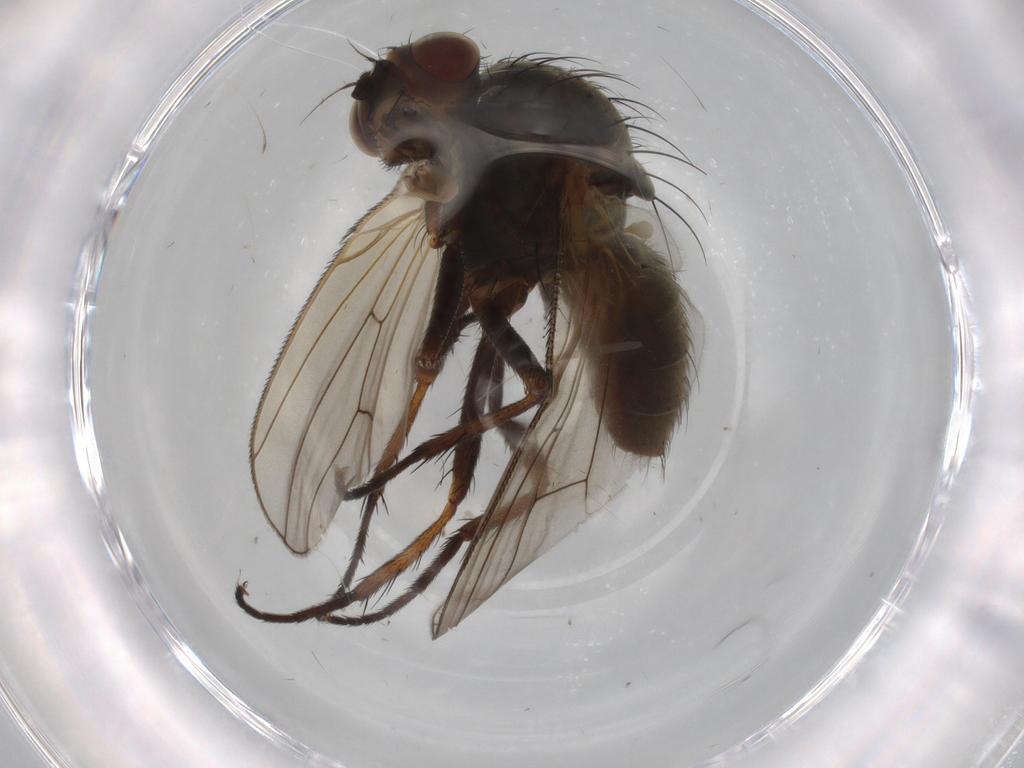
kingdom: Animalia
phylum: Arthropoda
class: Insecta
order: Diptera
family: Anthomyiidae
